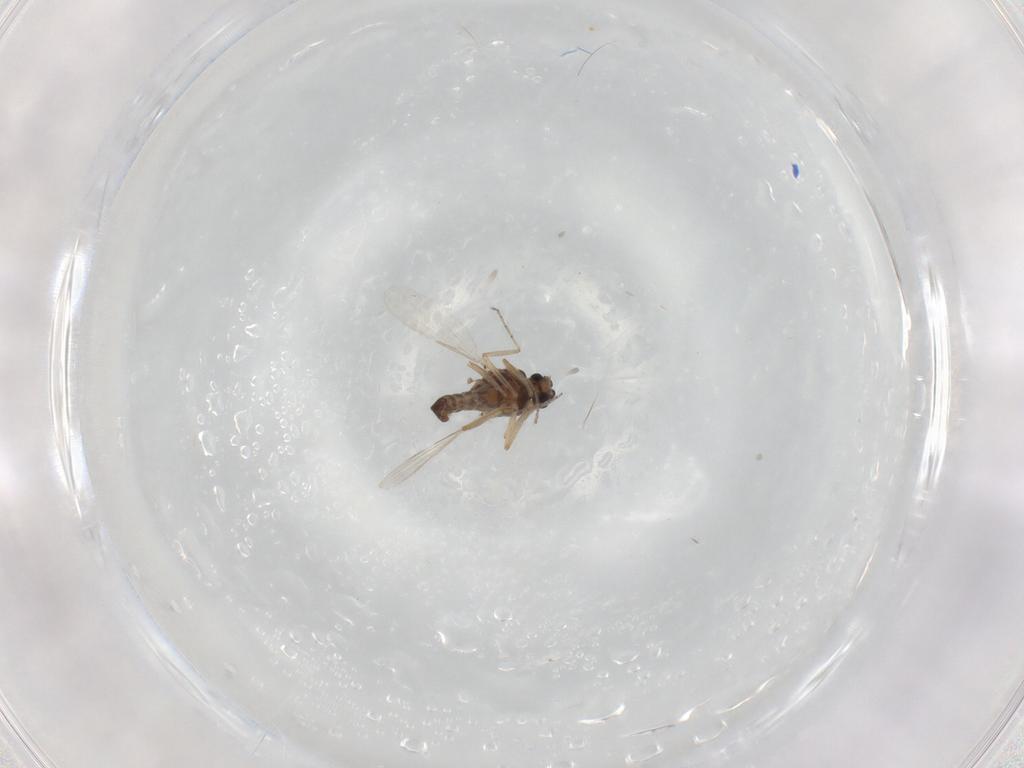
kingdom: Animalia
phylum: Arthropoda
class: Insecta
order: Diptera
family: Ceratopogonidae
